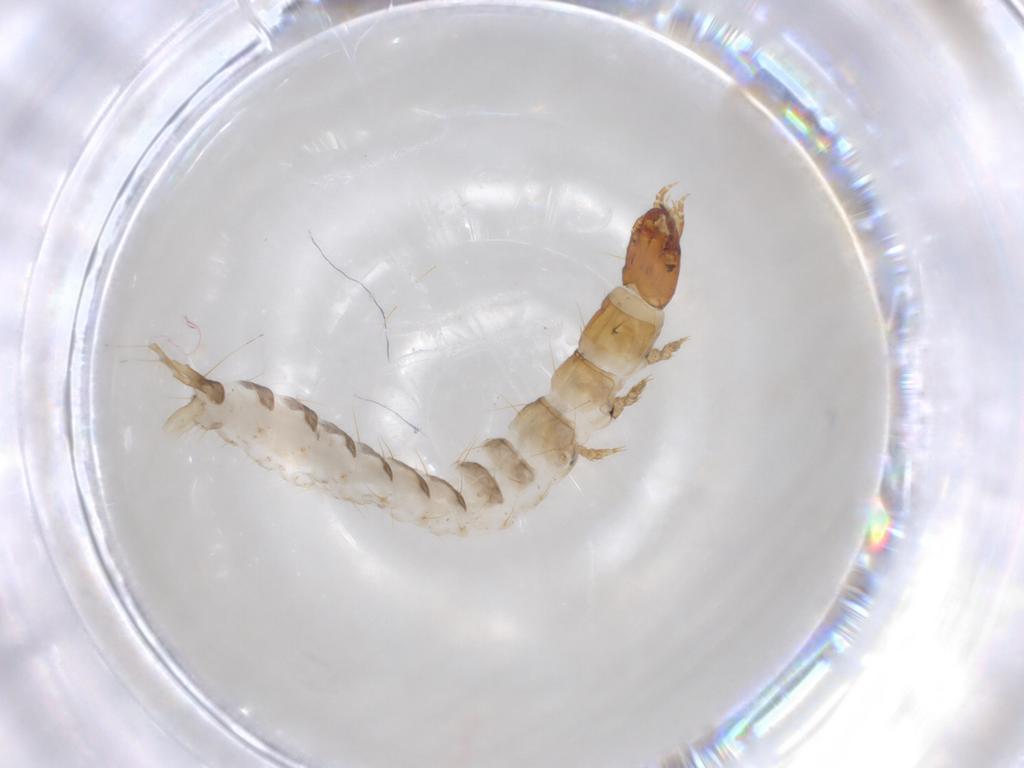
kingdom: Animalia
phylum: Arthropoda
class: Insecta
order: Coleoptera
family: Carabidae
